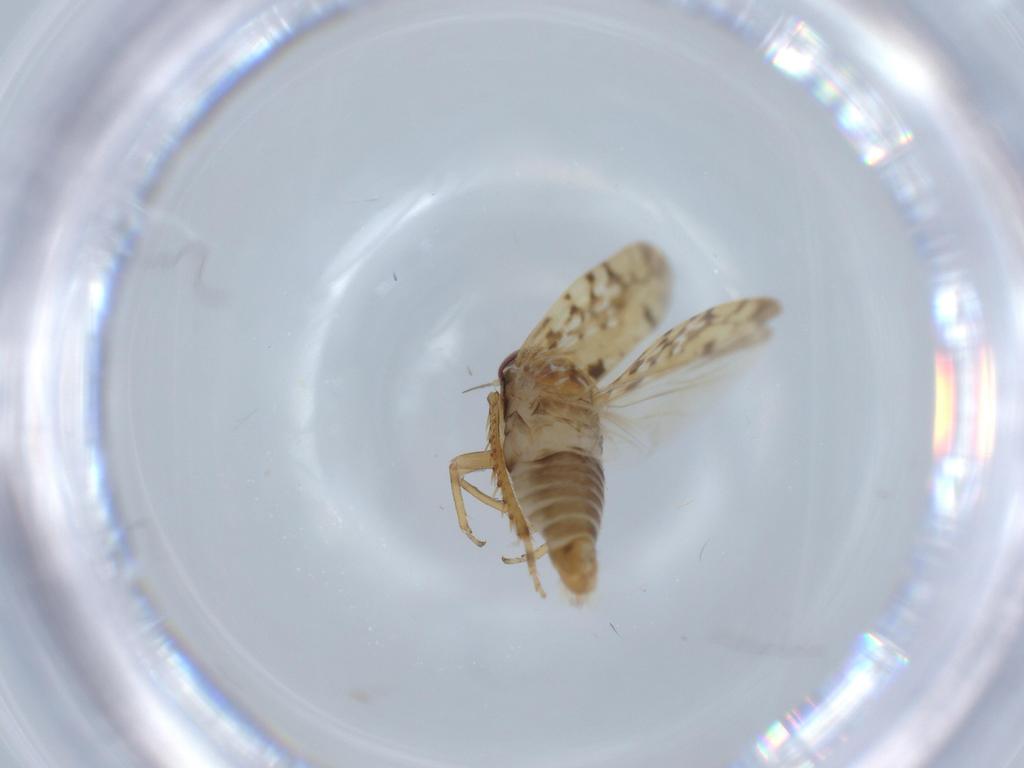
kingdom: Animalia
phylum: Arthropoda
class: Insecta
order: Hemiptera
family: Cicadellidae
